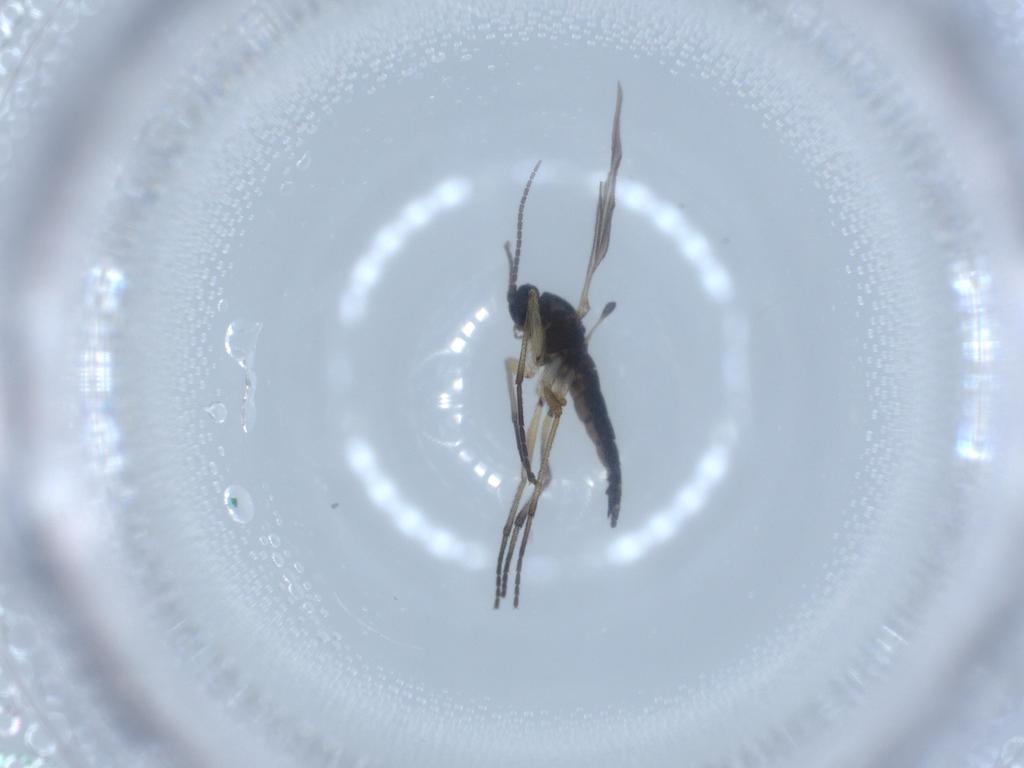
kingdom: Animalia
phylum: Arthropoda
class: Insecta
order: Diptera
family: Sciaridae
